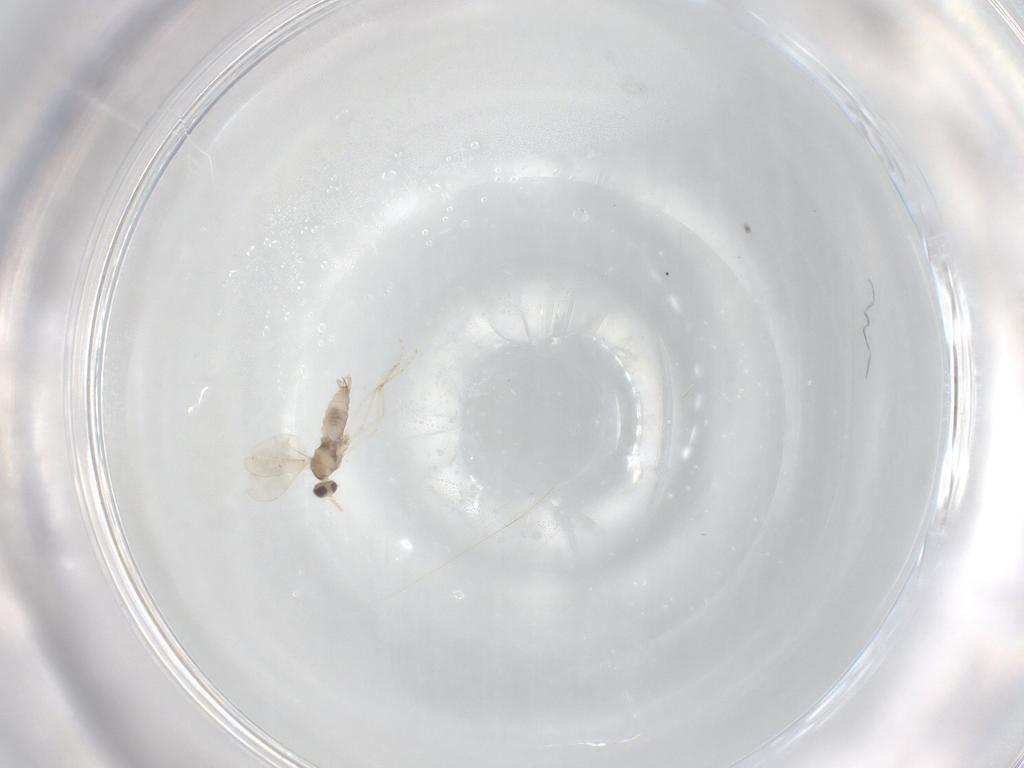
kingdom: Animalia
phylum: Arthropoda
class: Insecta
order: Diptera
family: Cecidomyiidae
